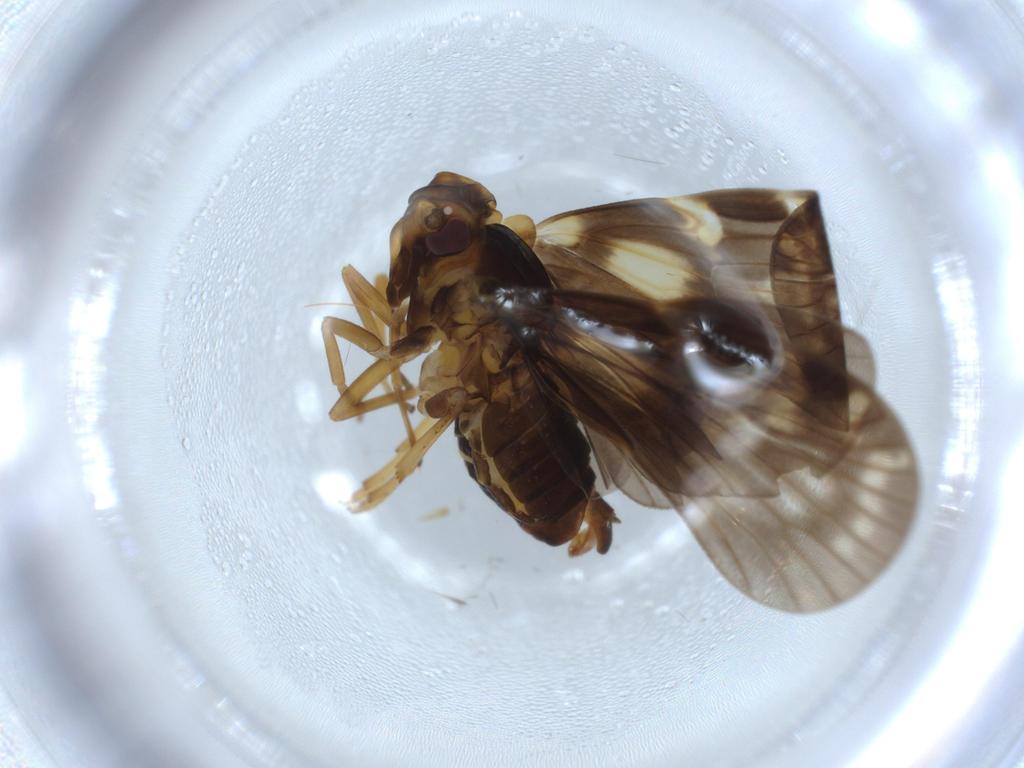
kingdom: Animalia
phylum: Arthropoda
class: Insecta
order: Hemiptera
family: Cixiidae
